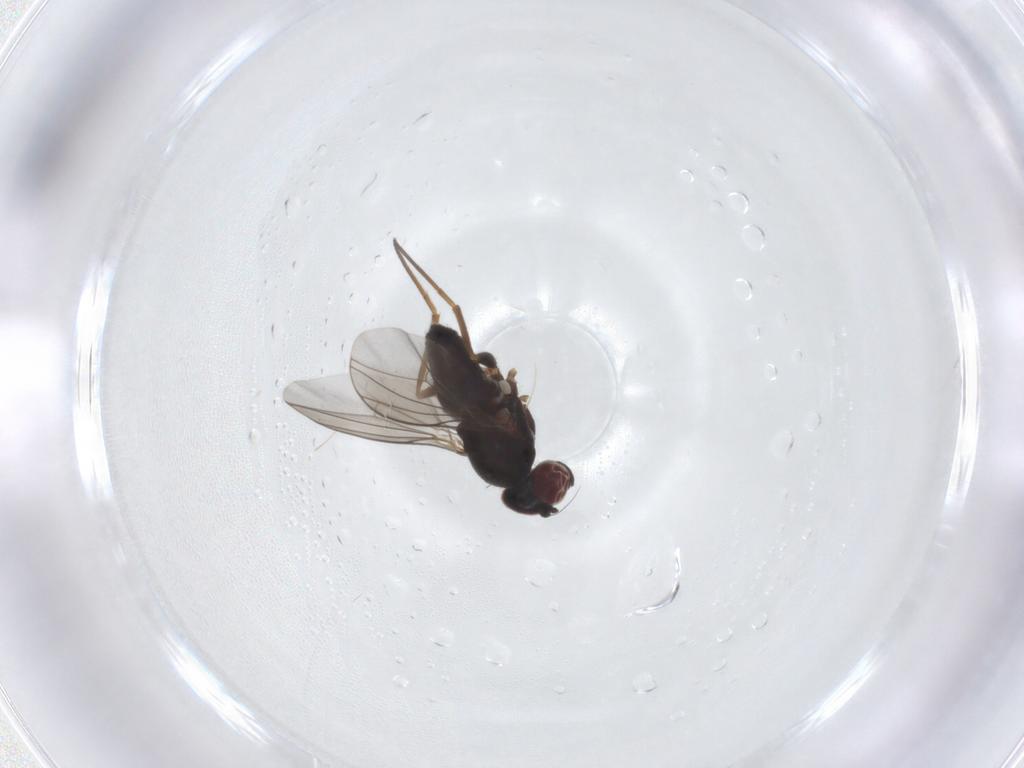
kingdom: Animalia
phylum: Arthropoda
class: Insecta
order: Diptera
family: Dolichopodidae
